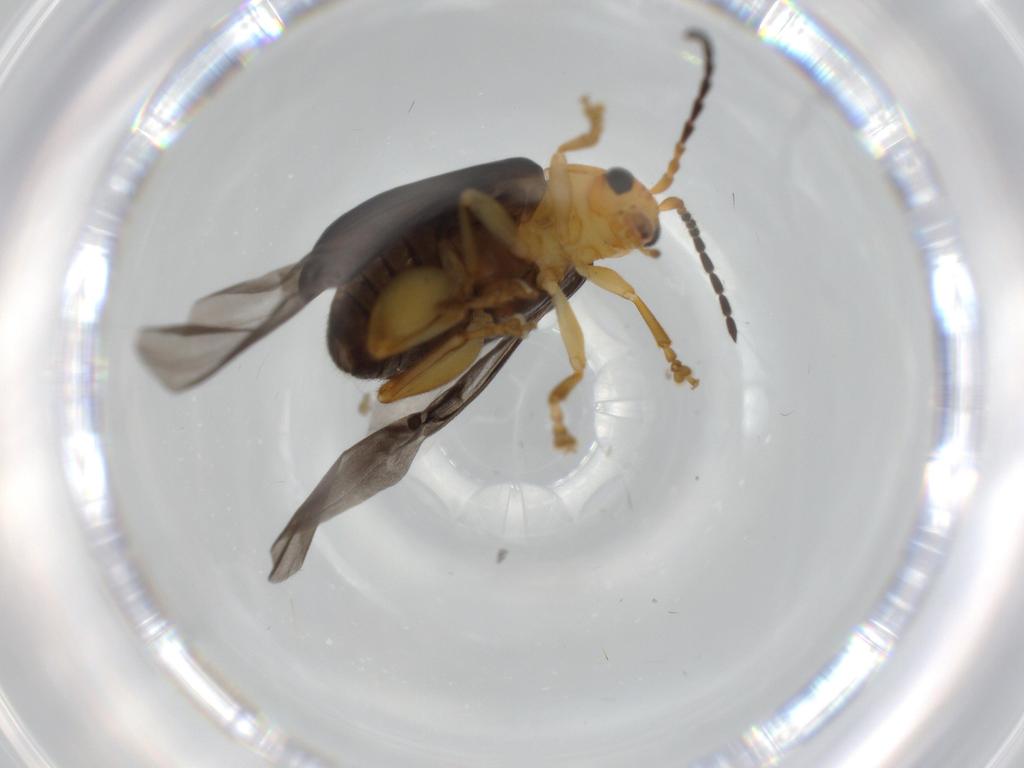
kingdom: Animalia
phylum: Arthropoda
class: Insecta
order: Coleoptera
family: Chrysomelidae
